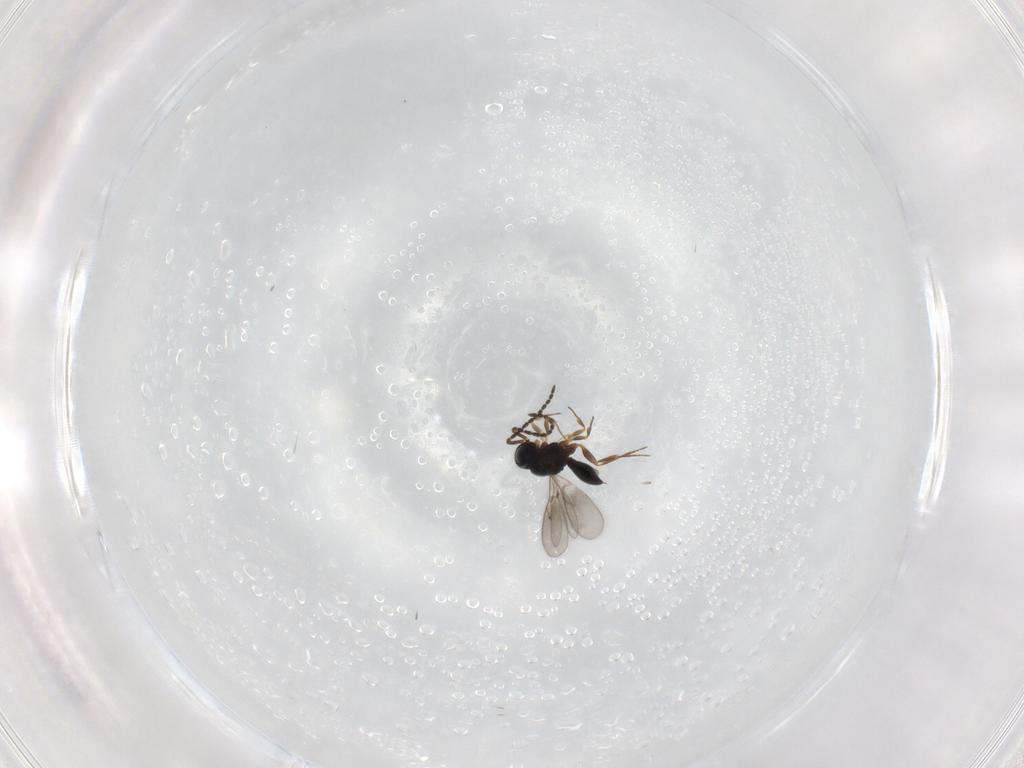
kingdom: Animalia
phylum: Arthropoda
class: Insecta
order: Hymenoptera
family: Scelionidae
